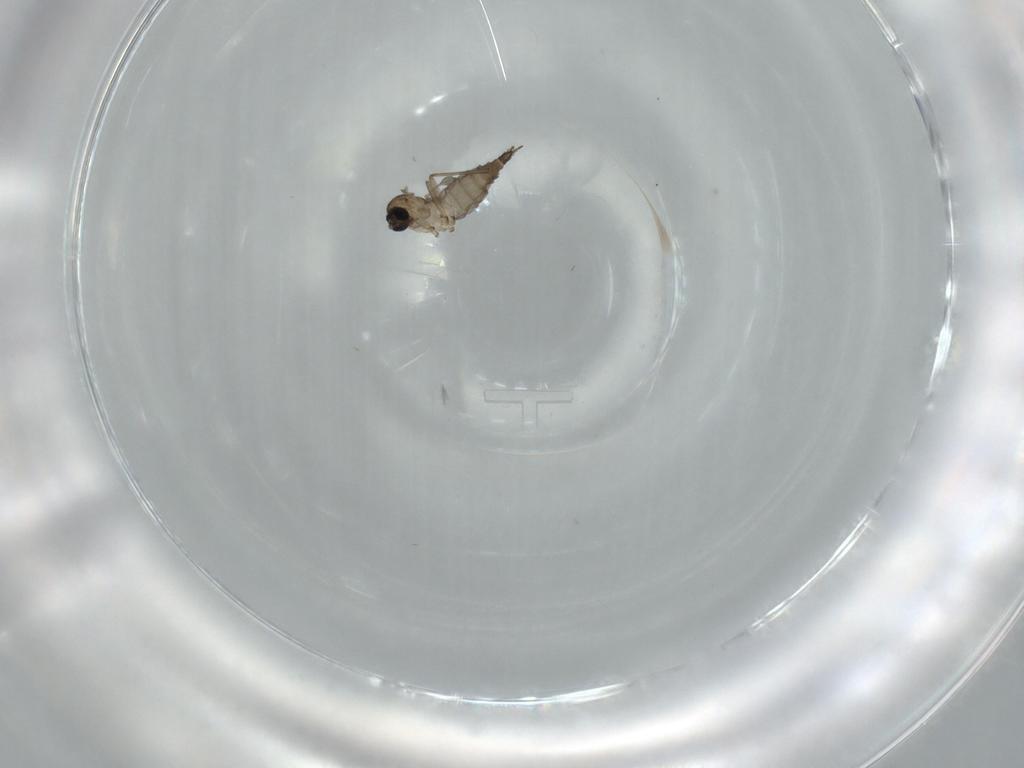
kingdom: Animalia
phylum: Arthropoda
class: Insecta
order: Diptera
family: Sciaridae
